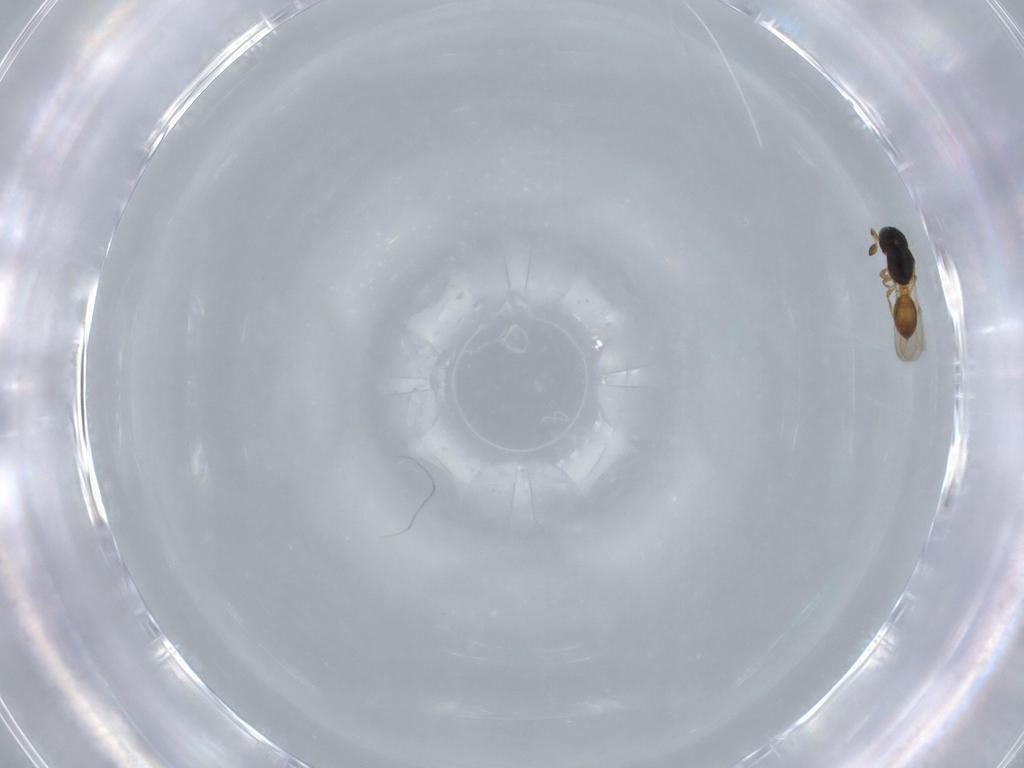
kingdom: Animalia
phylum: Arthropoda
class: Insecta
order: Hymenoptera
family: Scelionidae
